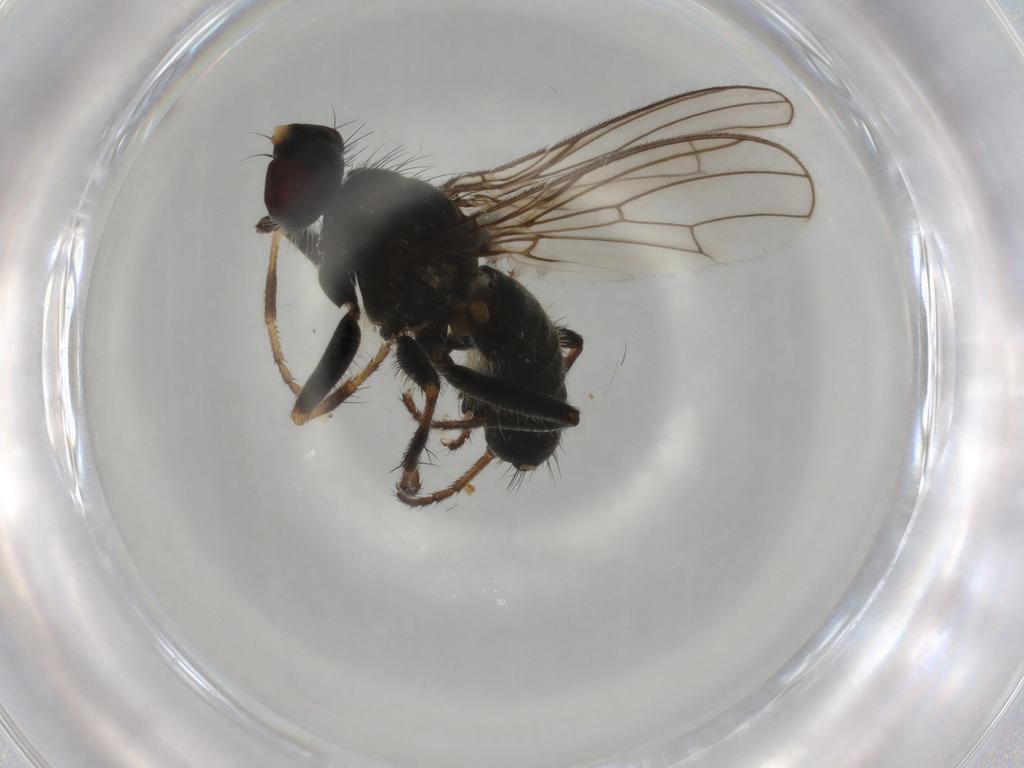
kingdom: Animalia
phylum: Arthropoda
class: Insecta
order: Diptera
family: Scathophagidae
